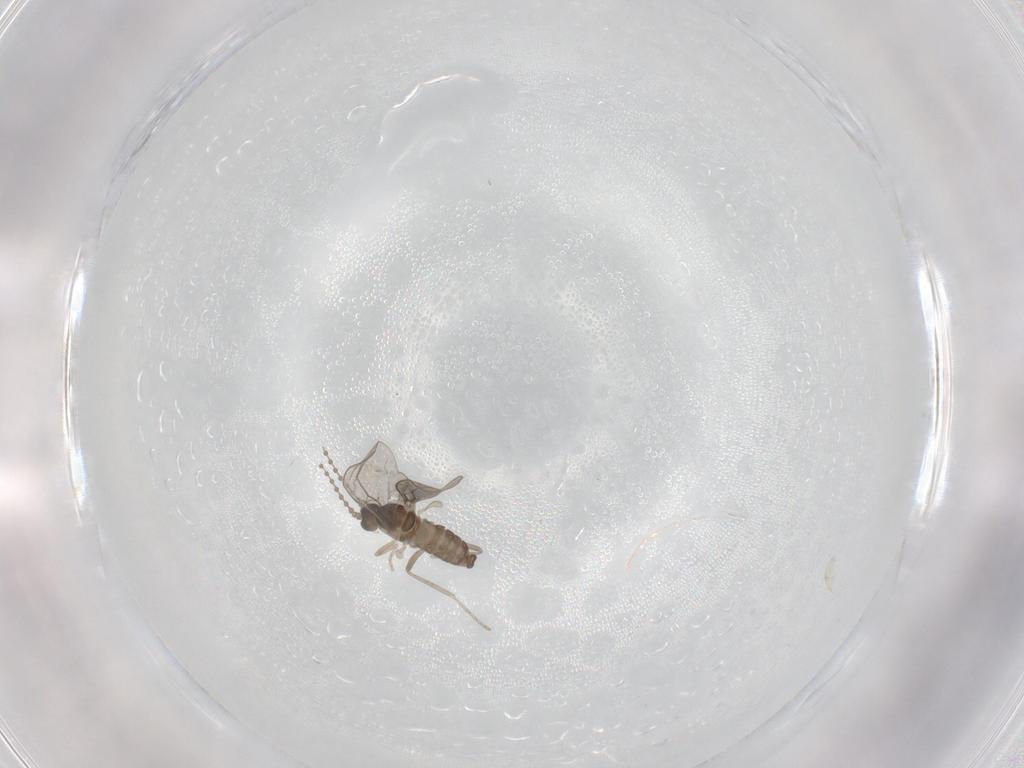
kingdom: Animalia
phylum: Arthropoda
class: Insecta
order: Diptera
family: Cecidomyiidae
